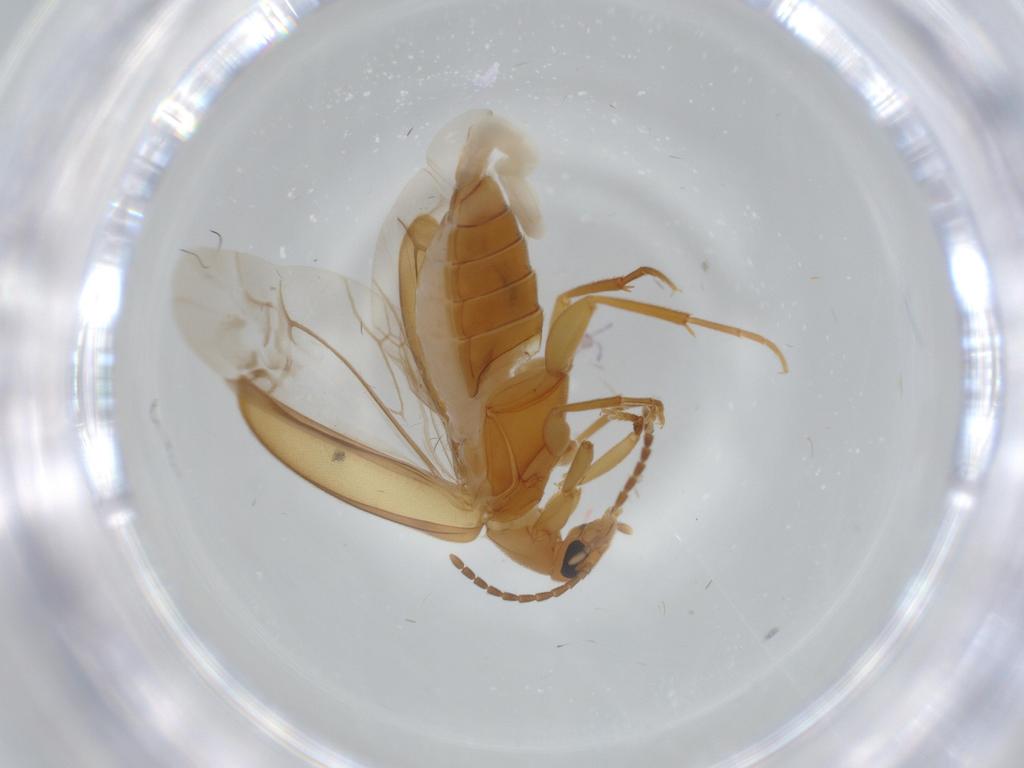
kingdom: Animalia
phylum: Arthropoda
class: Insecta
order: Coleoptera
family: Scraptiidae
